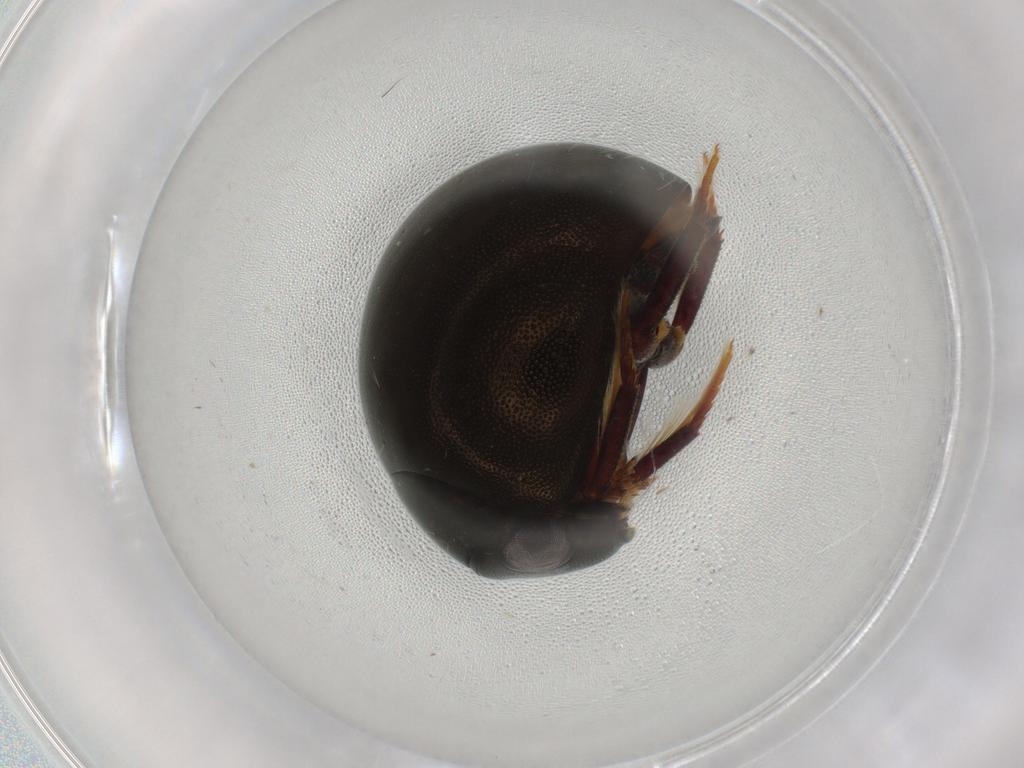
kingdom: Animalia
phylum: Arthropoda
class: Insecta
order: Coleoptera
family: Staphylinidae
